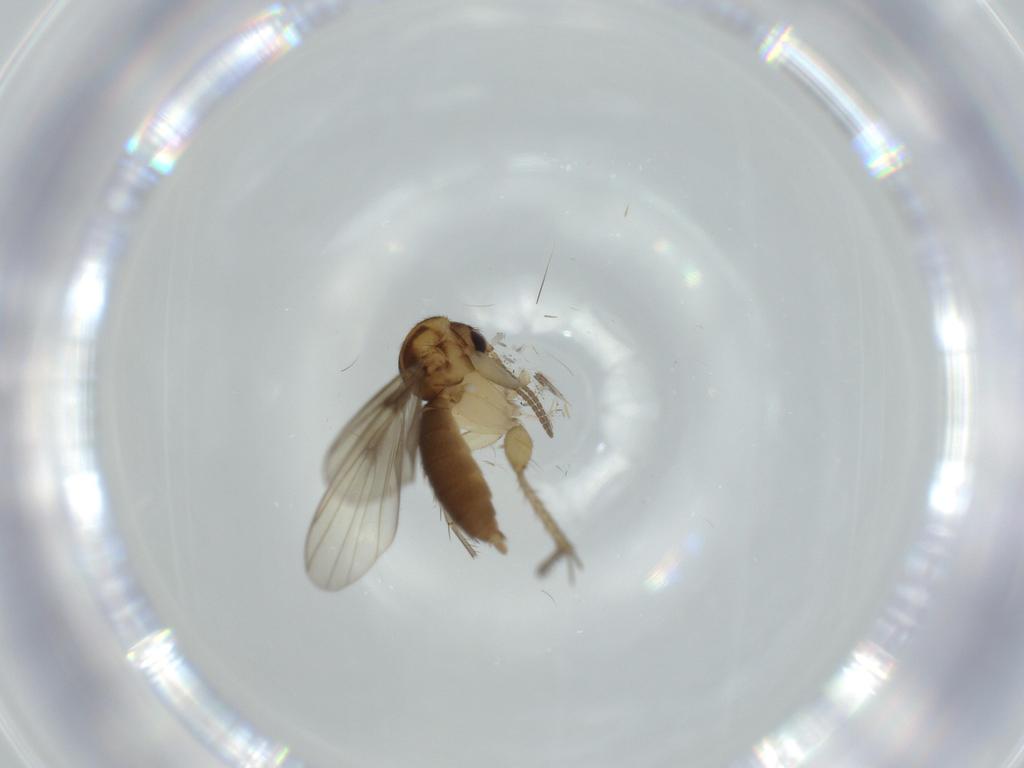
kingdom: Animalia
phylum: Arthropoda
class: Insecta
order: Diptera
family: Mycetophilidae
